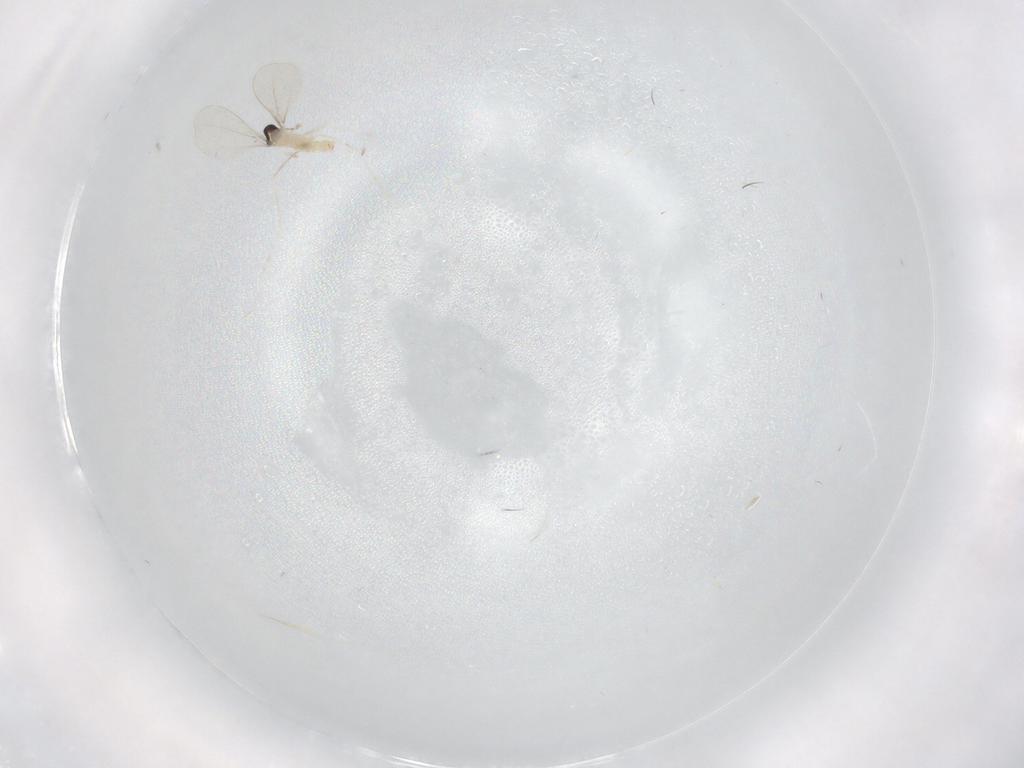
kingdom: Animalia
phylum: Arthropoda
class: Insecta
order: Diptera
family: Cecidomyiidae
